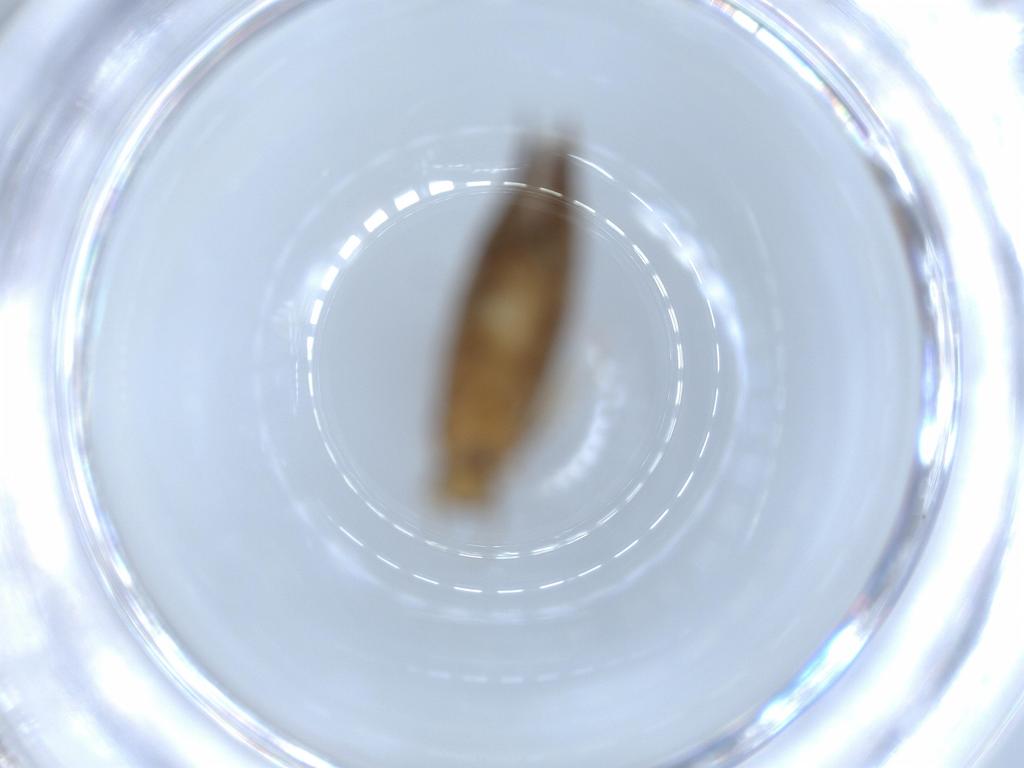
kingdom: Animalia
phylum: Arthropoda
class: Insecta
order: Lepidoptera
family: Tineidae
